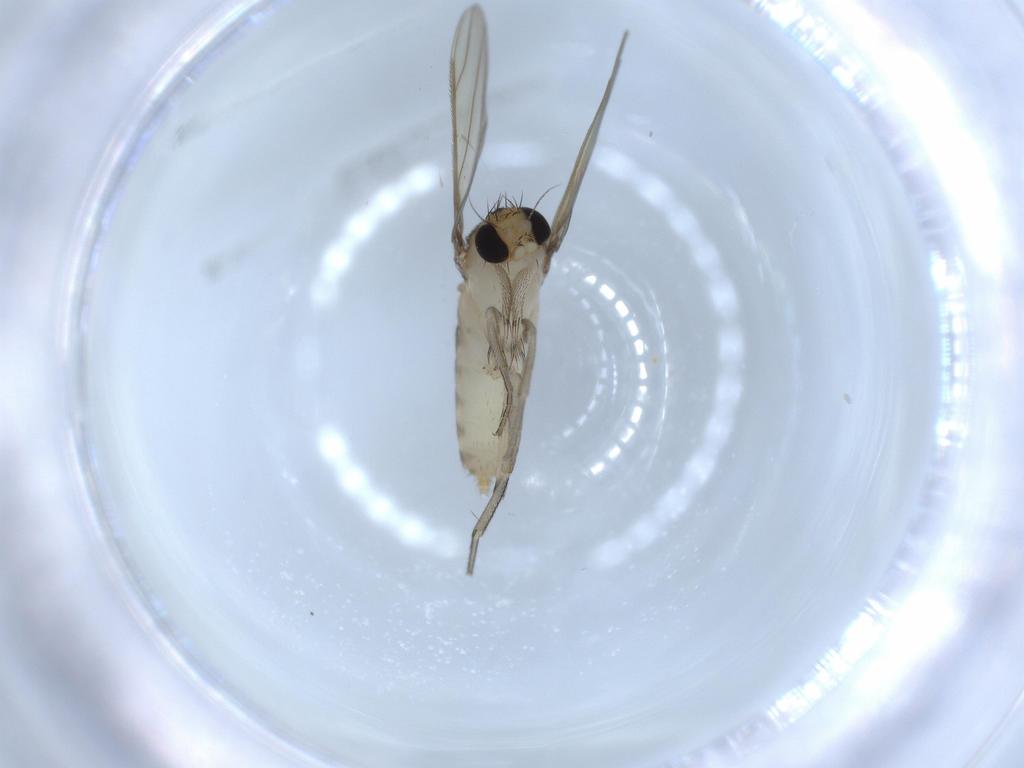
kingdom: Animalia
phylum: Arthropoda
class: Insecta
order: Diptera
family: Sciaridae
